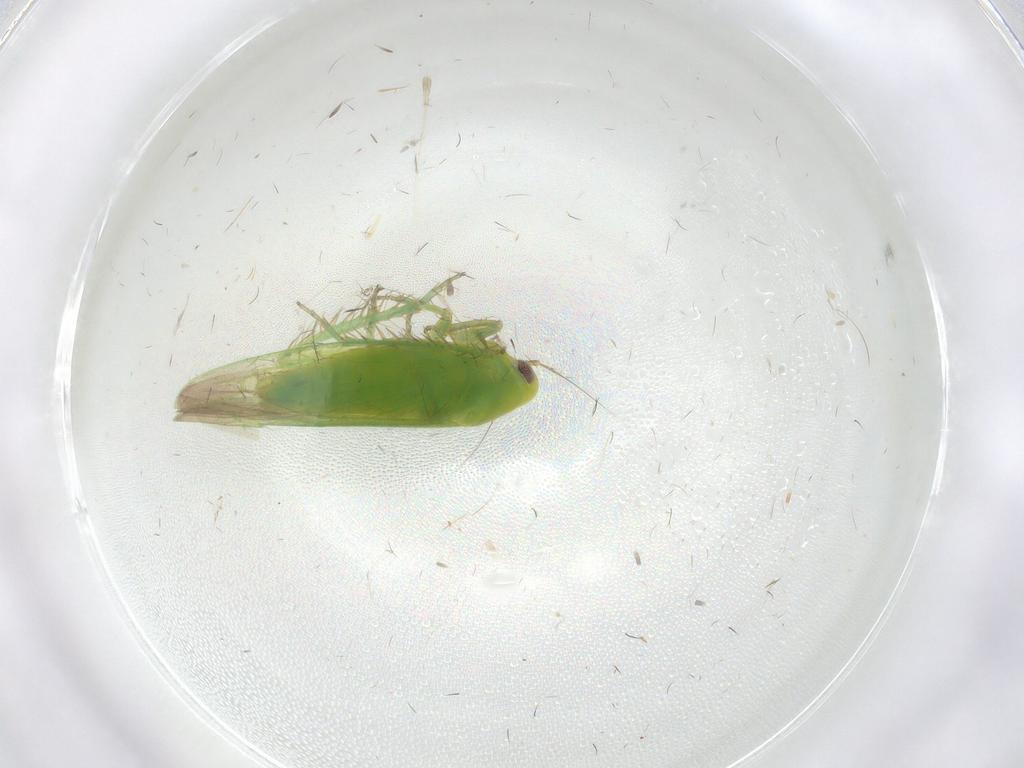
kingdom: Animalia
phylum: Arthropoda
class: Insecta
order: Hemiptera
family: Cicadellidae
